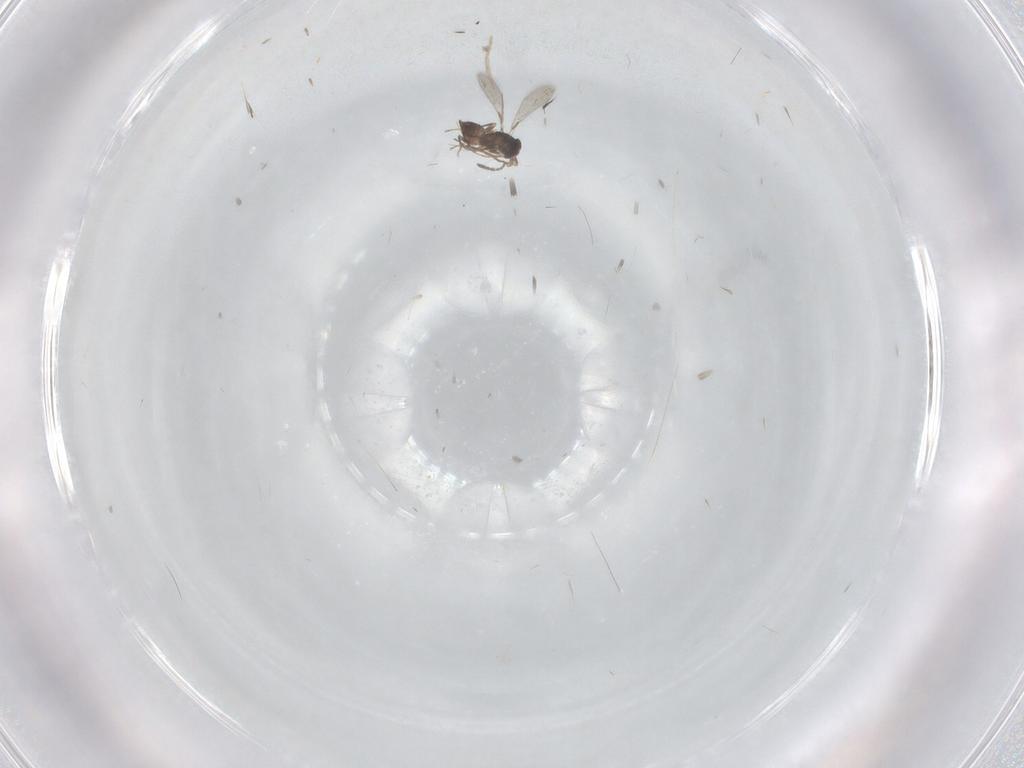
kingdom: Animalia
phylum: Arthropoda
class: Insecta
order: Hymenoptera
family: Mymaridae
